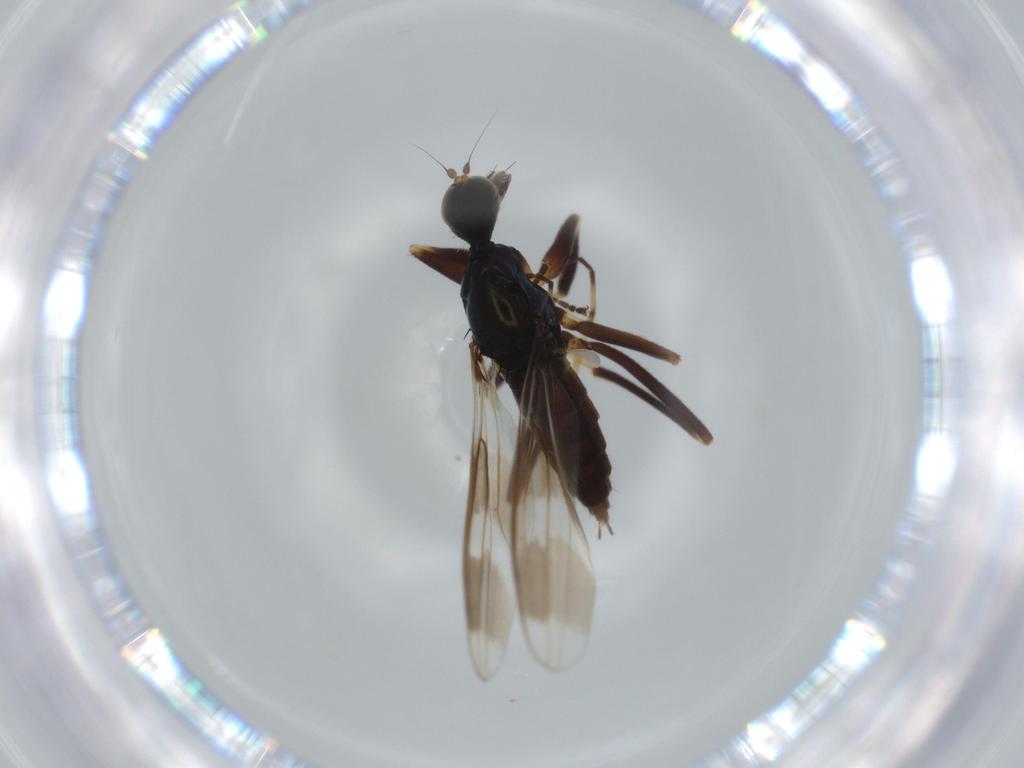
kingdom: Animalia
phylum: Arthropoda
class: Insecta
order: Diptera
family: Hybotidae
